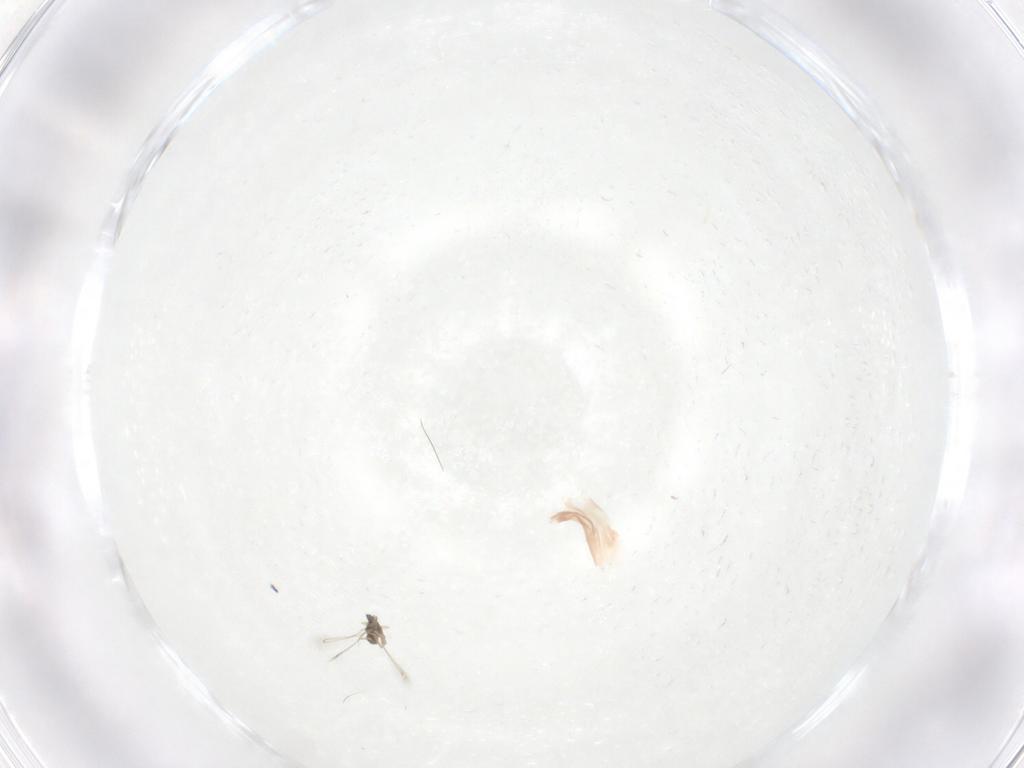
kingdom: Animalia
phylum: Arthropoda
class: Insecta
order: Hymenoptera
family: Scelionidae
